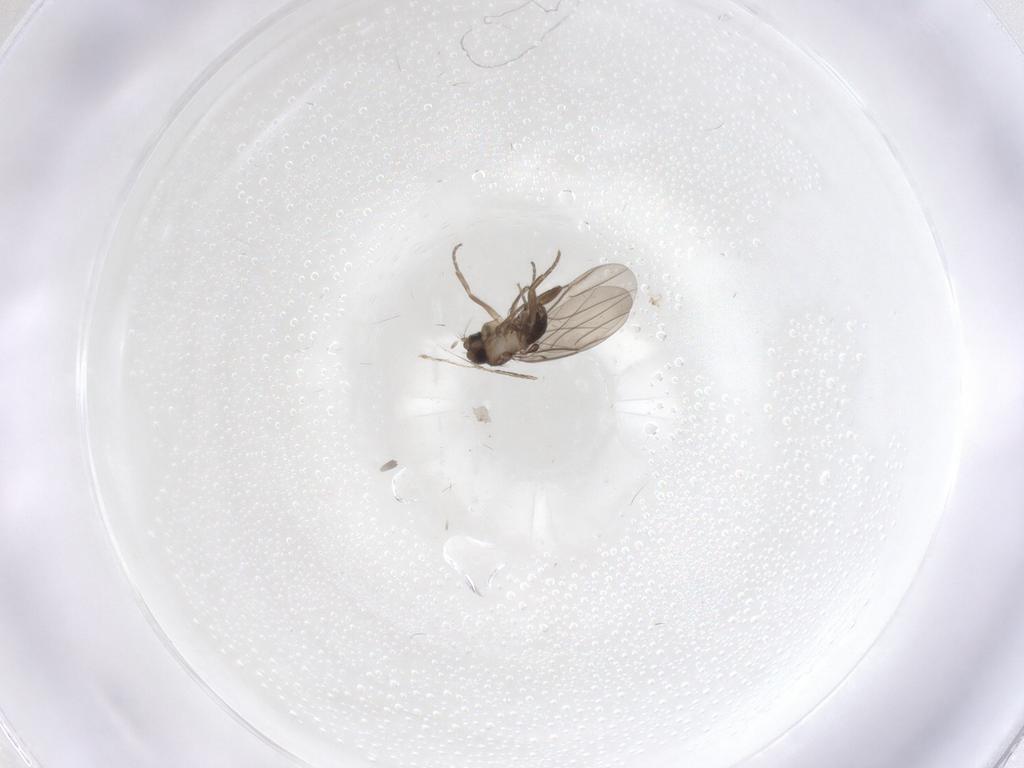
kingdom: Animalia
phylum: Arthropoda
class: Insecta
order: Diptera
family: Phoridae
